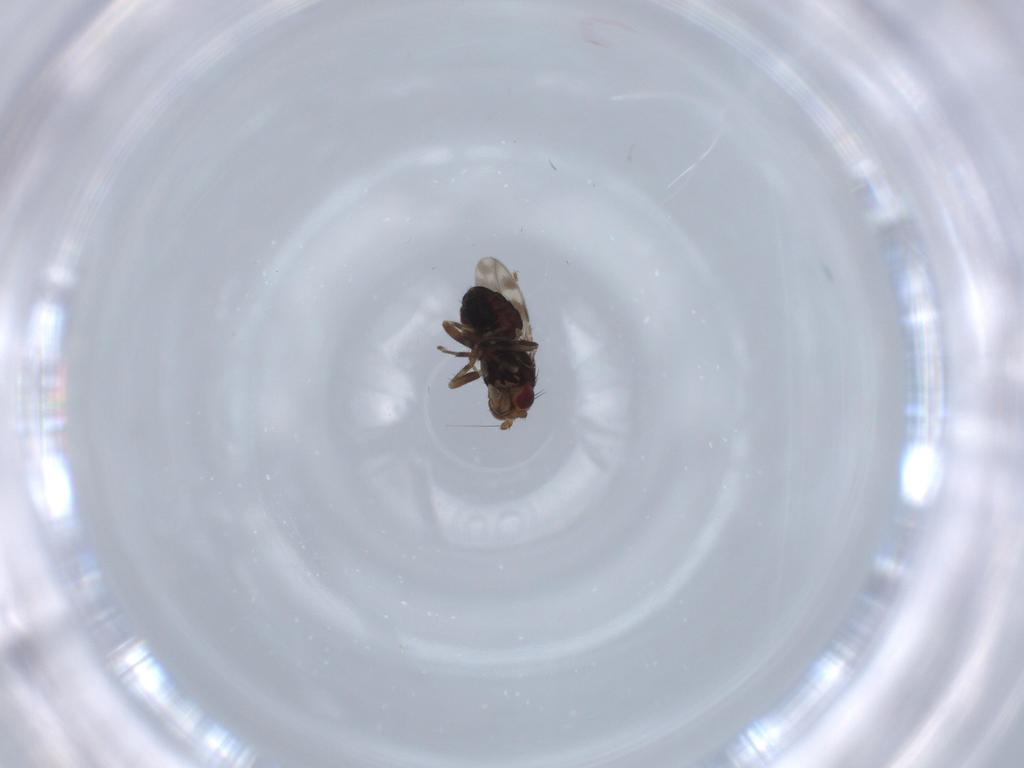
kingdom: Animalia
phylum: Arthropoda
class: Insecta
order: Diptera
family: Sphaeroceridae
